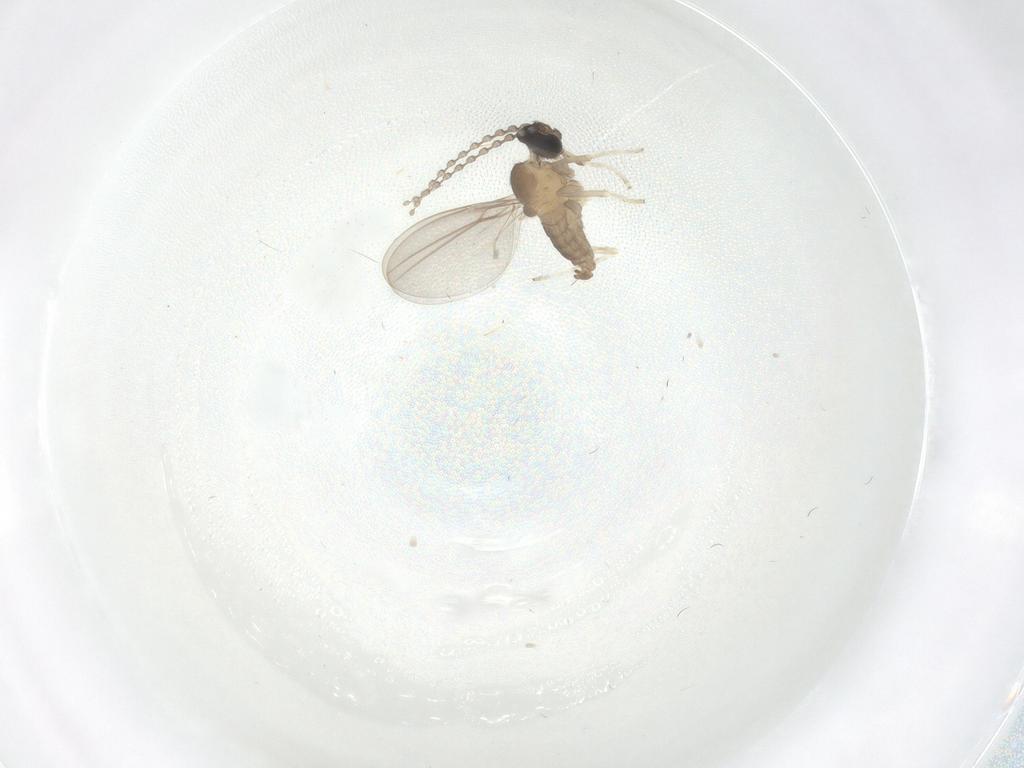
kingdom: Animalia
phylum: Arthropoda
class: Insecta
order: Diptera
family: Cecidomyiidae
